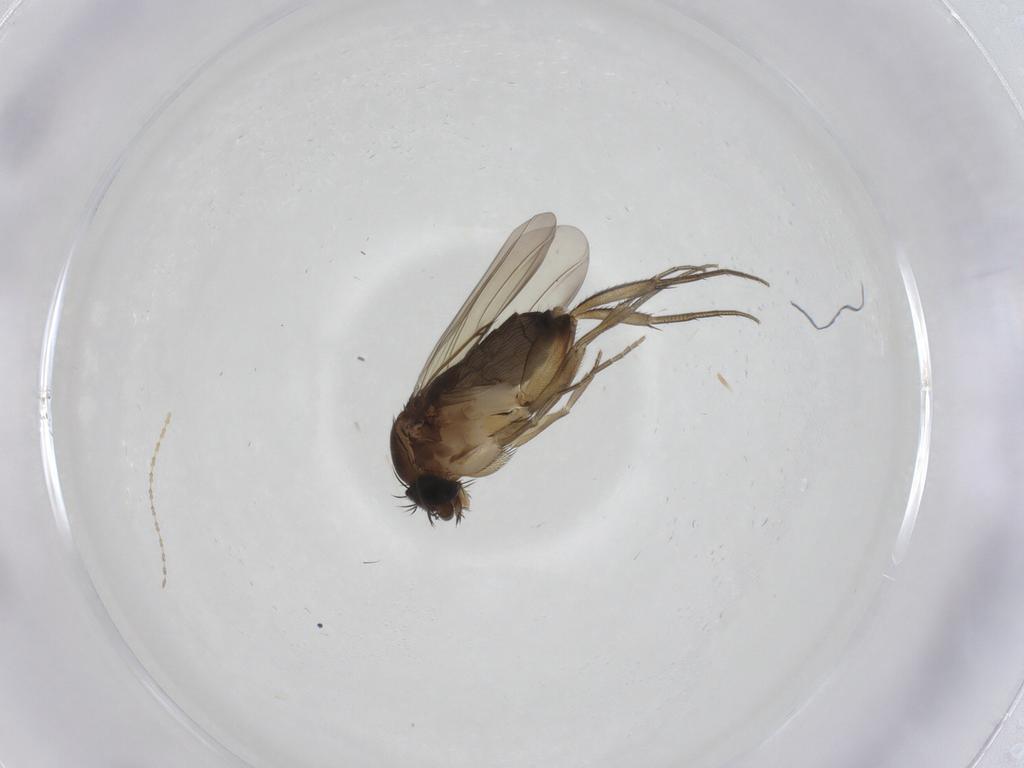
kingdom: Animalia
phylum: Arthropoda
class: Insecta
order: Diptera
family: Phoridae
